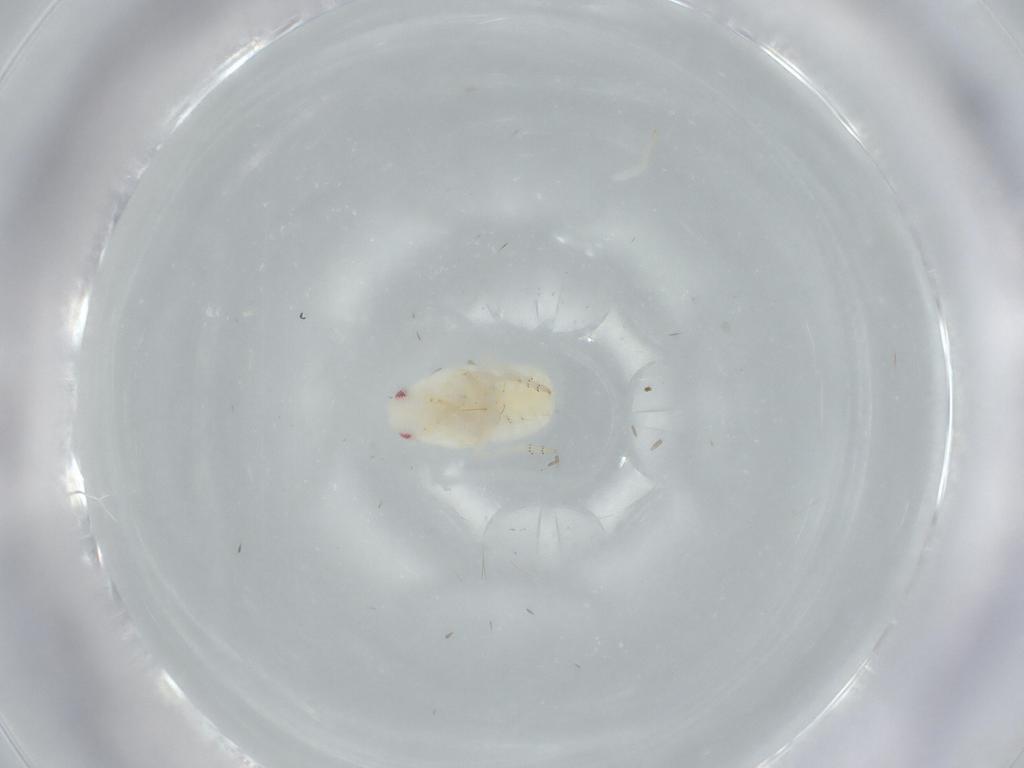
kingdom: Animalia
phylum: Arthropoda
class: Insecta
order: Hemiptera
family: Flatidae
